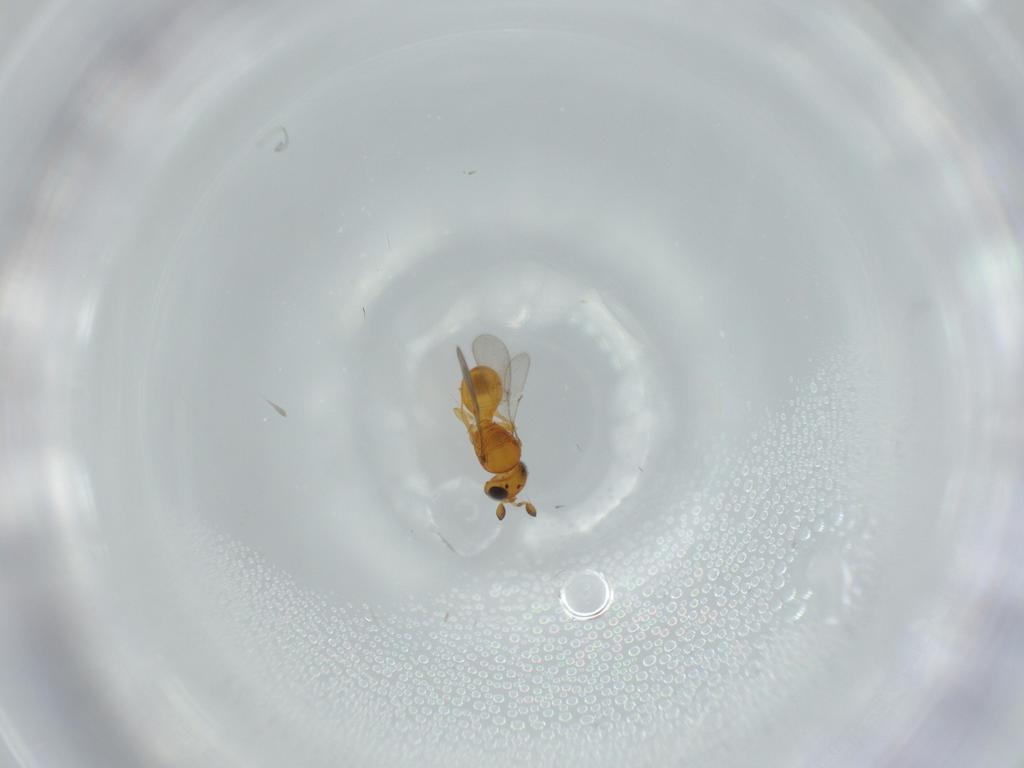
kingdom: Animalia
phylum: Arthropoda
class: Insecta
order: Hymenoptera
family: Scelionidae
